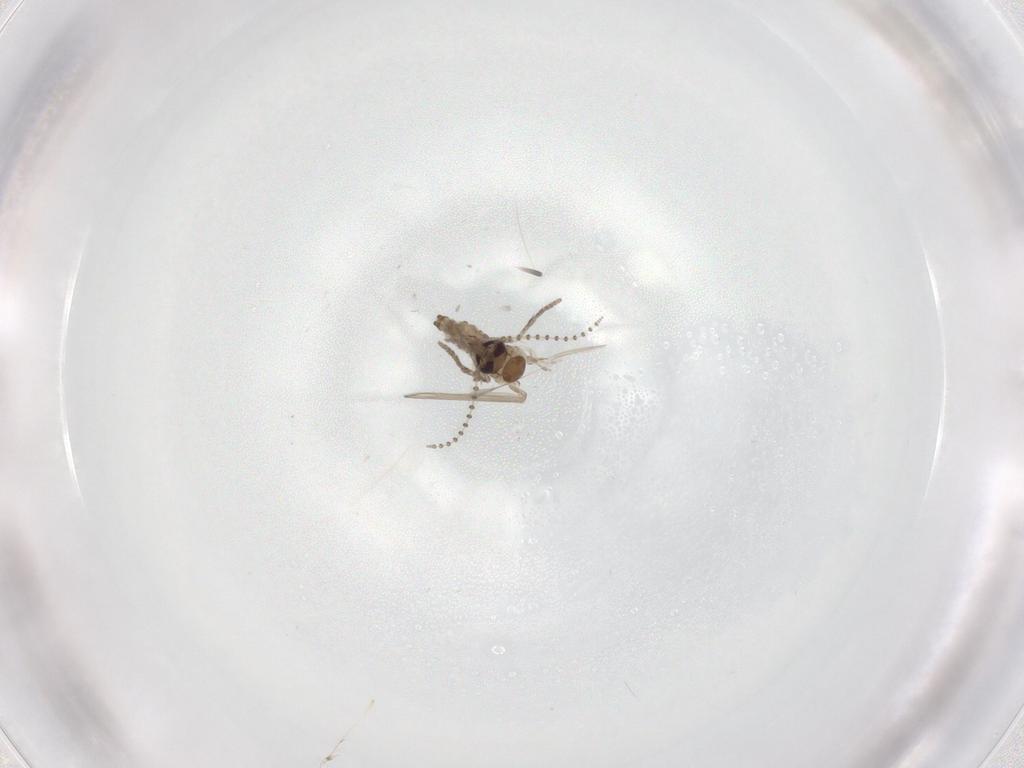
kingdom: Animalia
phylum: Arthropoda
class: Insecta
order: Diptera
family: Psychodidae
